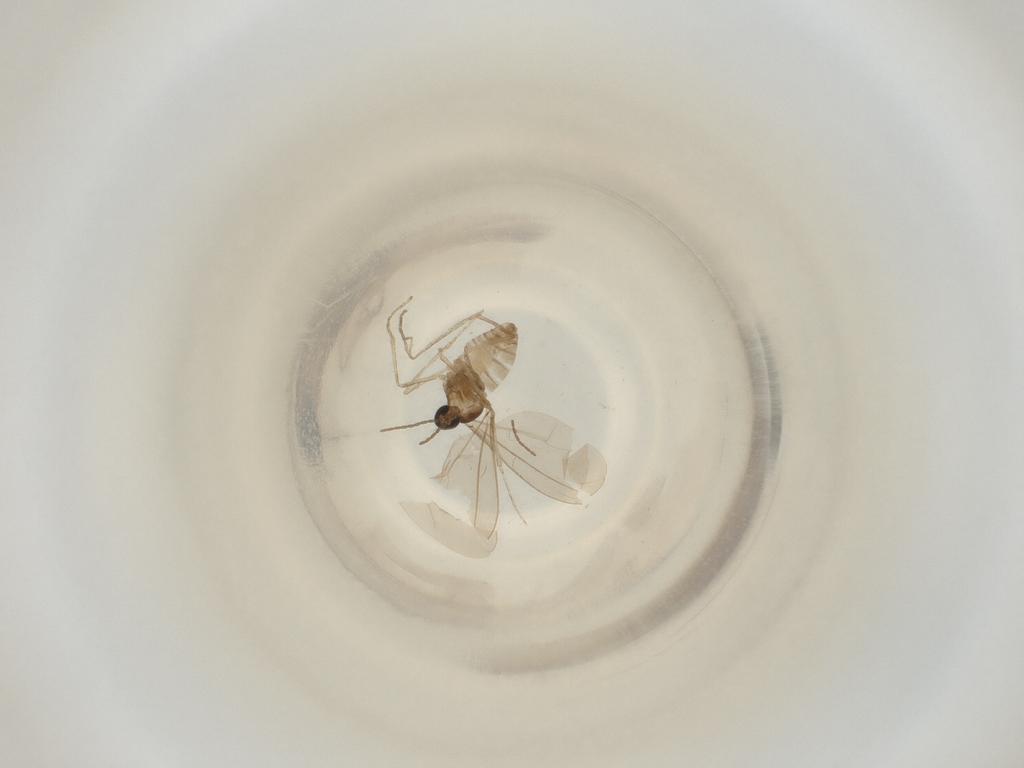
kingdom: Animalia
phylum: Arthropoda
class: Insecta
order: Diptera
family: Cecidomyiidae
